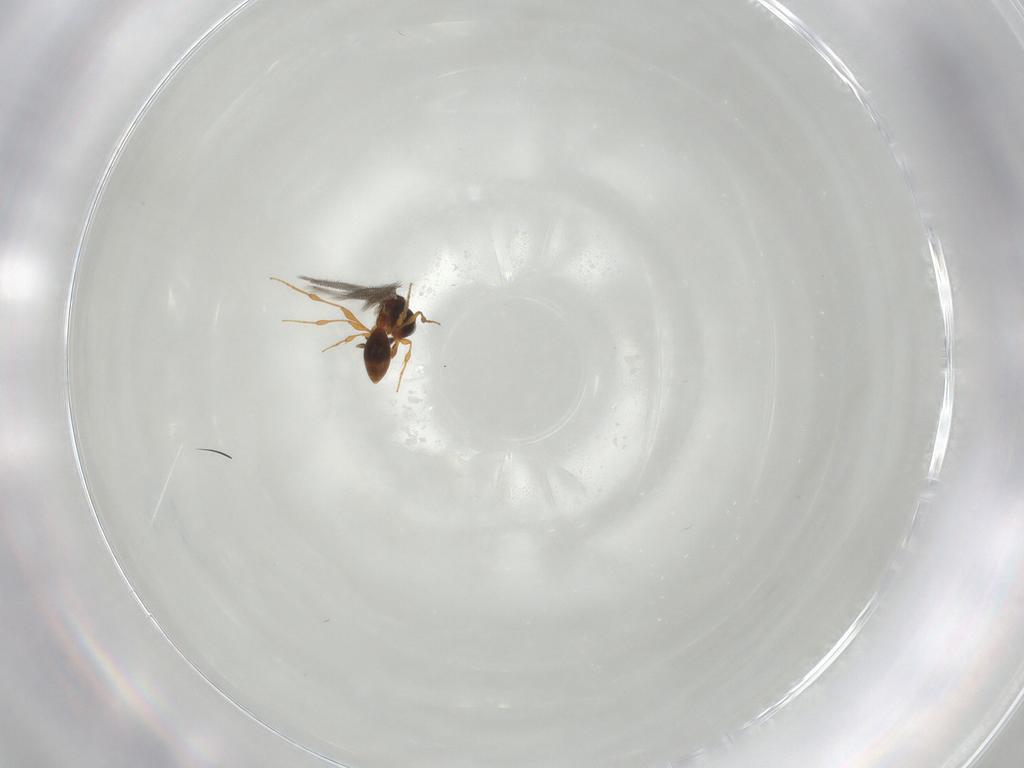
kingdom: Animalia
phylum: Arthropoda
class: Insecta
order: Hymenoptera
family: Platygastridae
